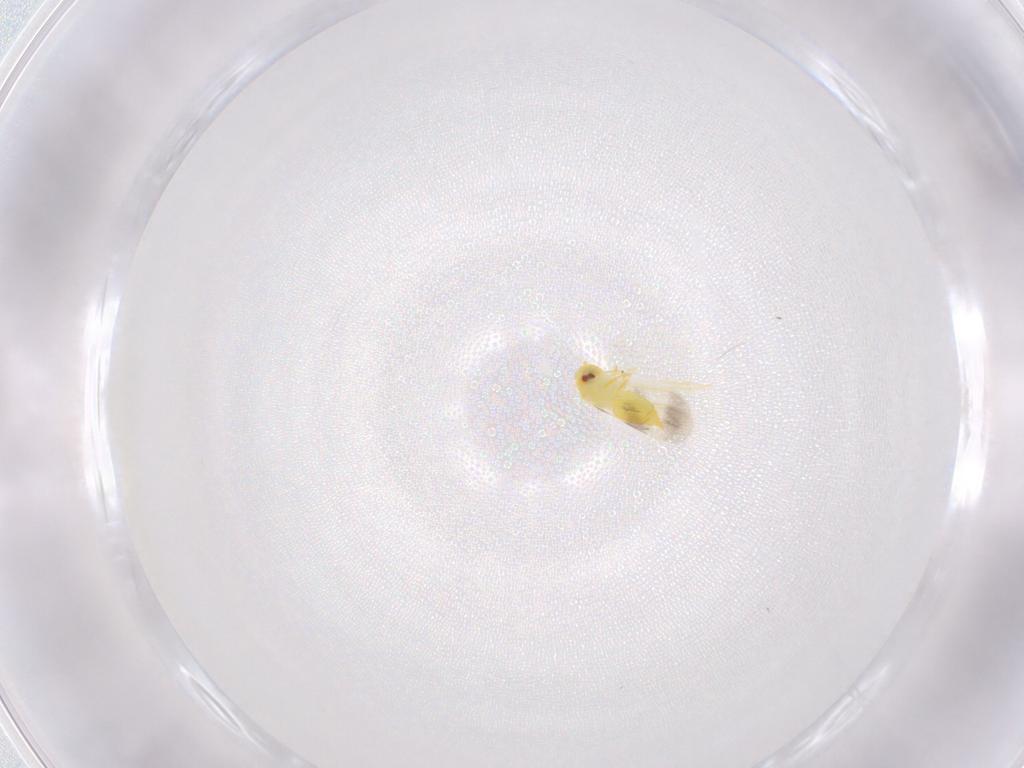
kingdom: Animalia
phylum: Arthropoda
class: Insecta
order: Hemiptera
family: Aleyrodidae
